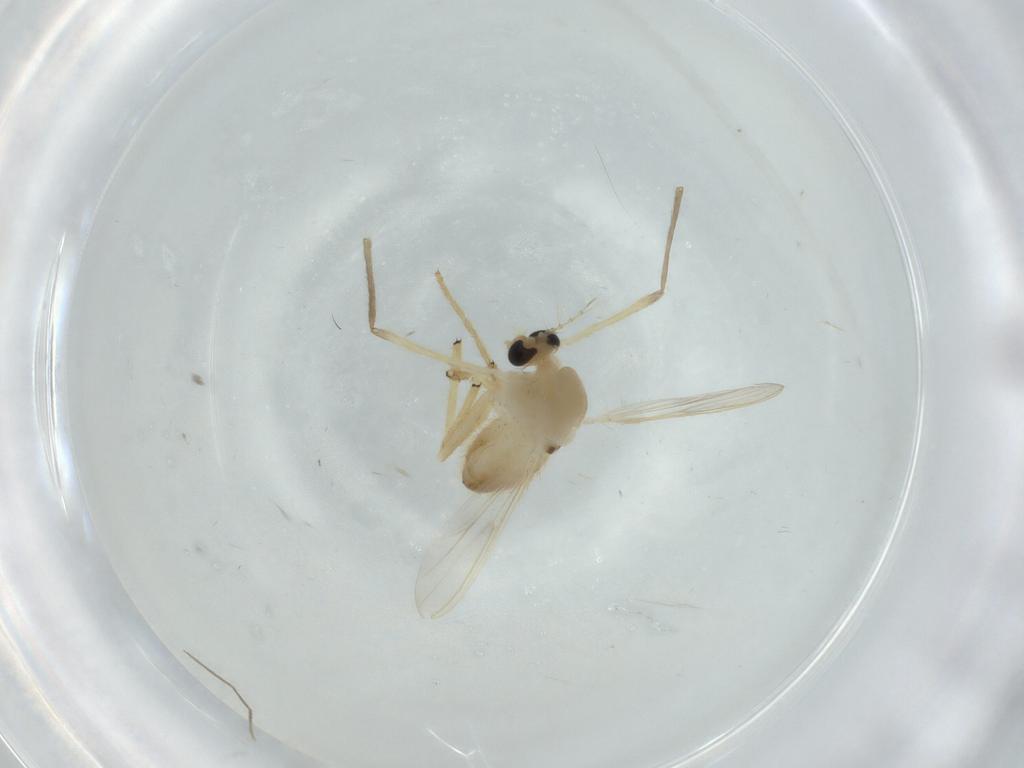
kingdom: Animalia
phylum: Arthropoda
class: Insecta
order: Diptera
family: Chironomidae
